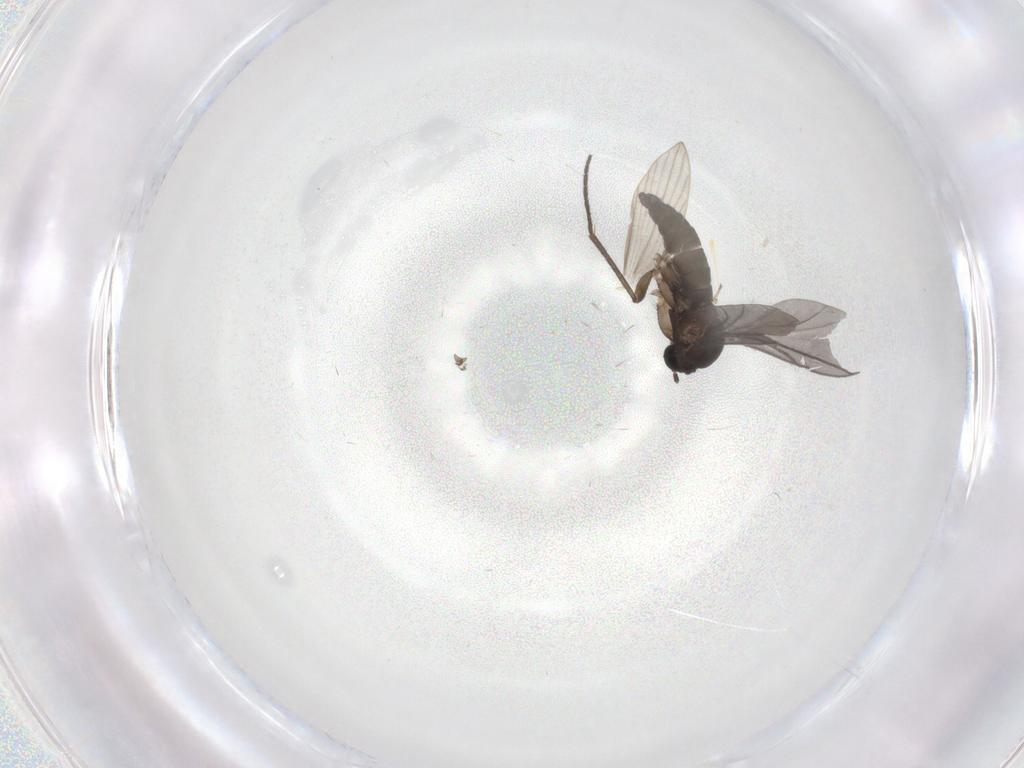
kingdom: Animalia
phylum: Arthropoda
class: Insecta
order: Diptera
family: Sciaridae
